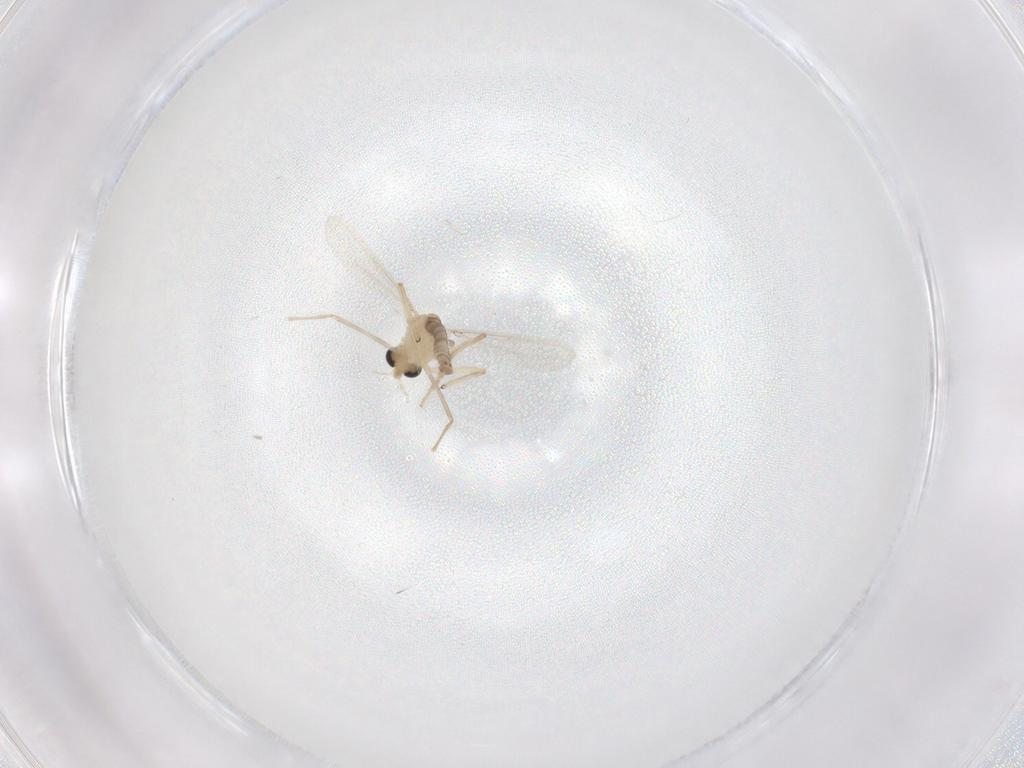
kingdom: Animalia
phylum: Arthropoda
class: Insecta
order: Diptera
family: Chironomidae
